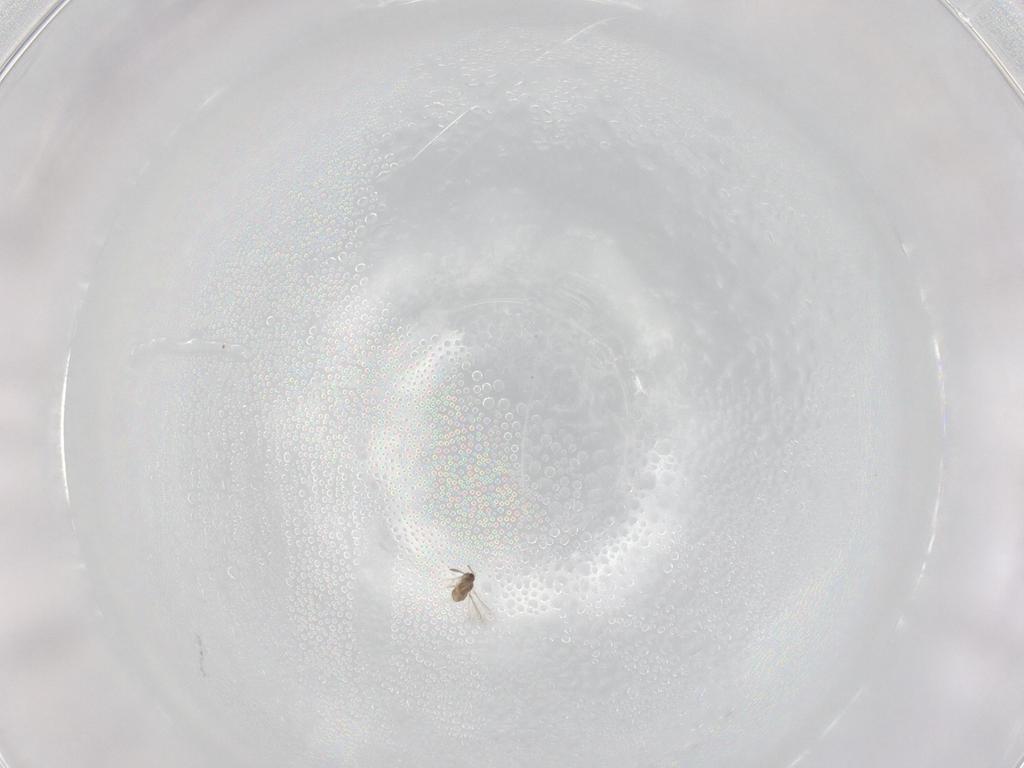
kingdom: Animalia
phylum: Arthropoda
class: Insecta
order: Hymenoptera
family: Mymaridae
